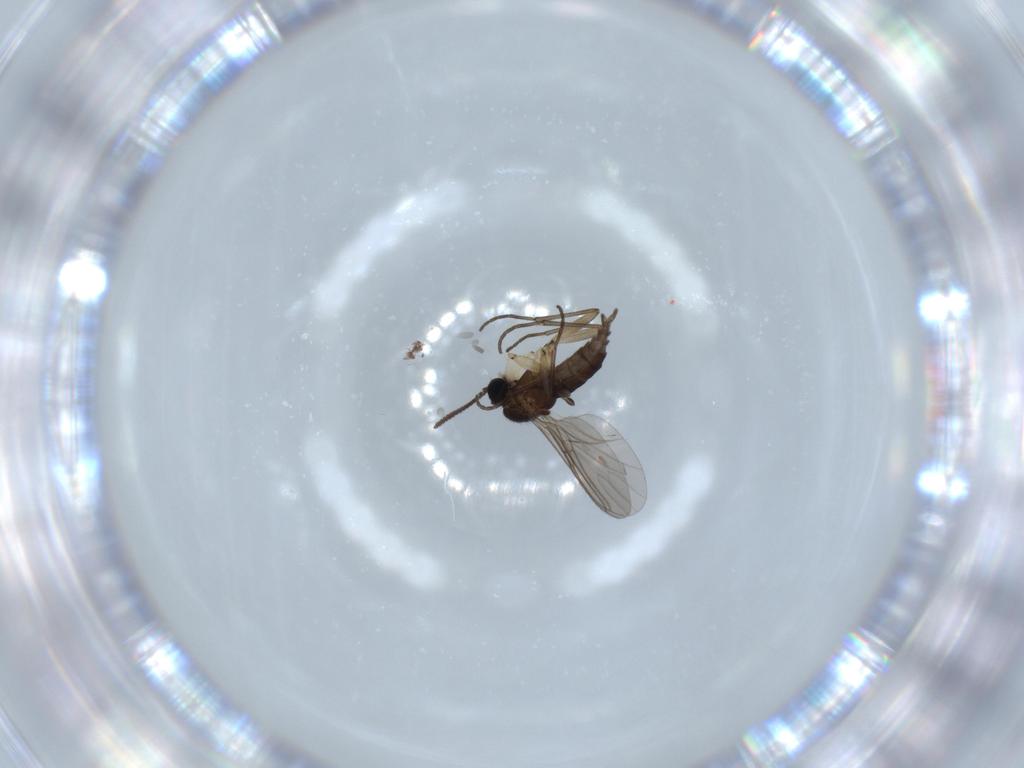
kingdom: Animalia
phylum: Arthropoda
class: Insecta
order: Diptera
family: Sciaridae
